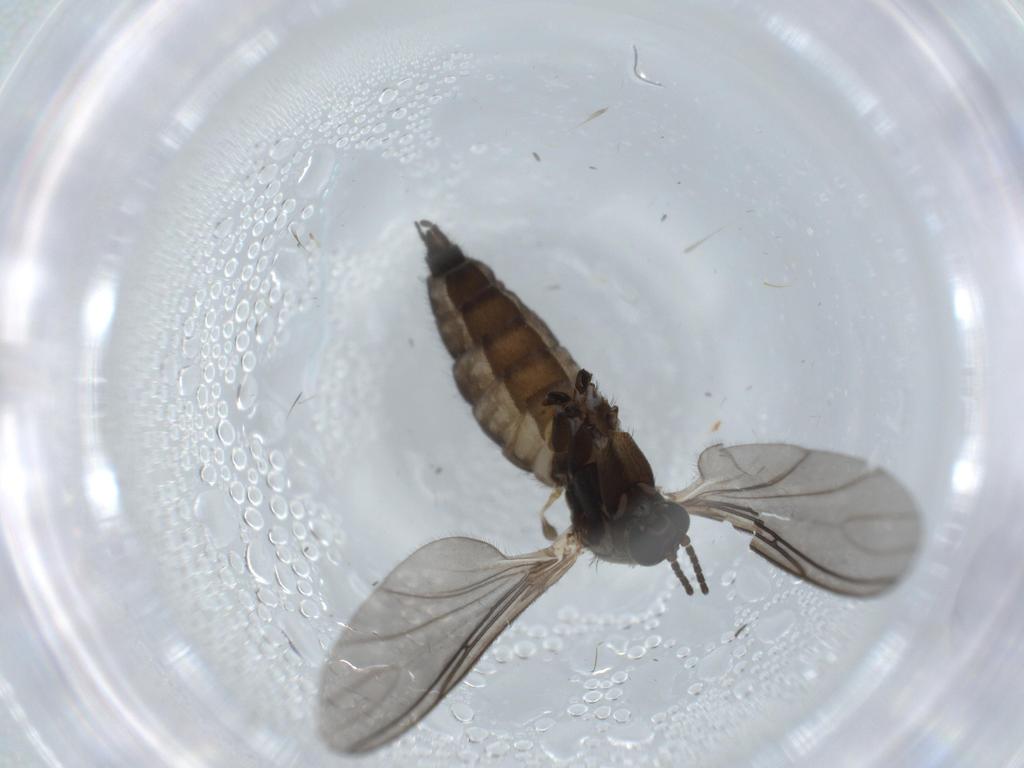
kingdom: Animalia
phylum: Arthropoda
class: Insecta
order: Diptera
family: Sciaridae
